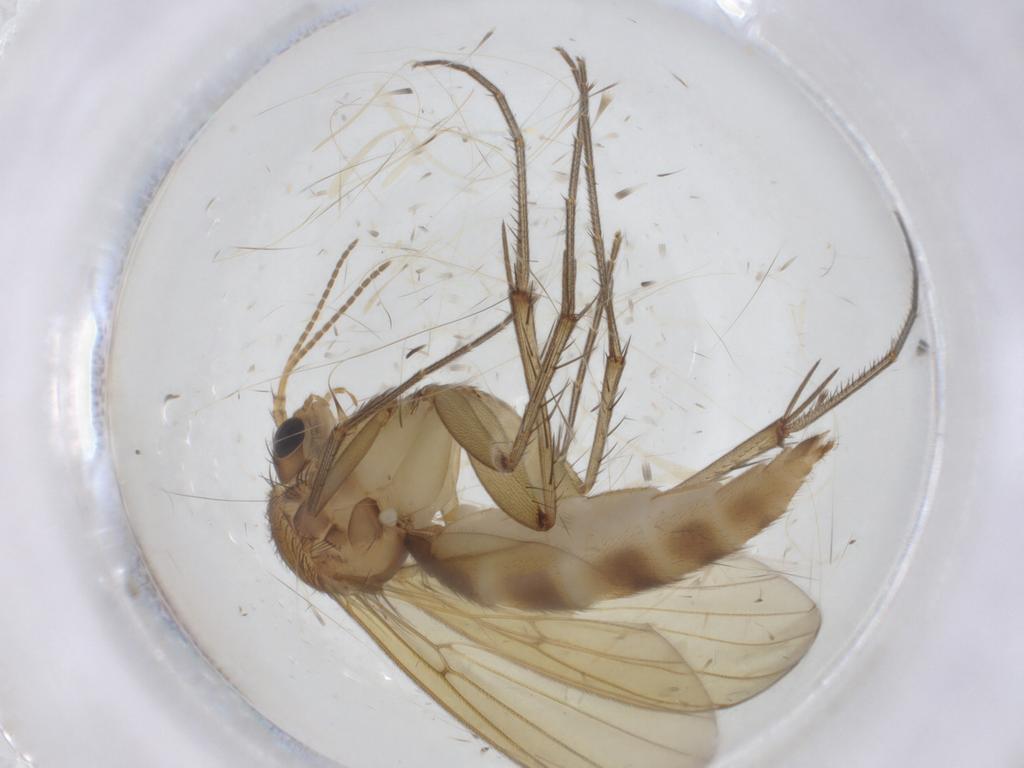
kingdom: Animalia
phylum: Arthropoda
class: Insecta
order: Diptera
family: Mycetophilidae
